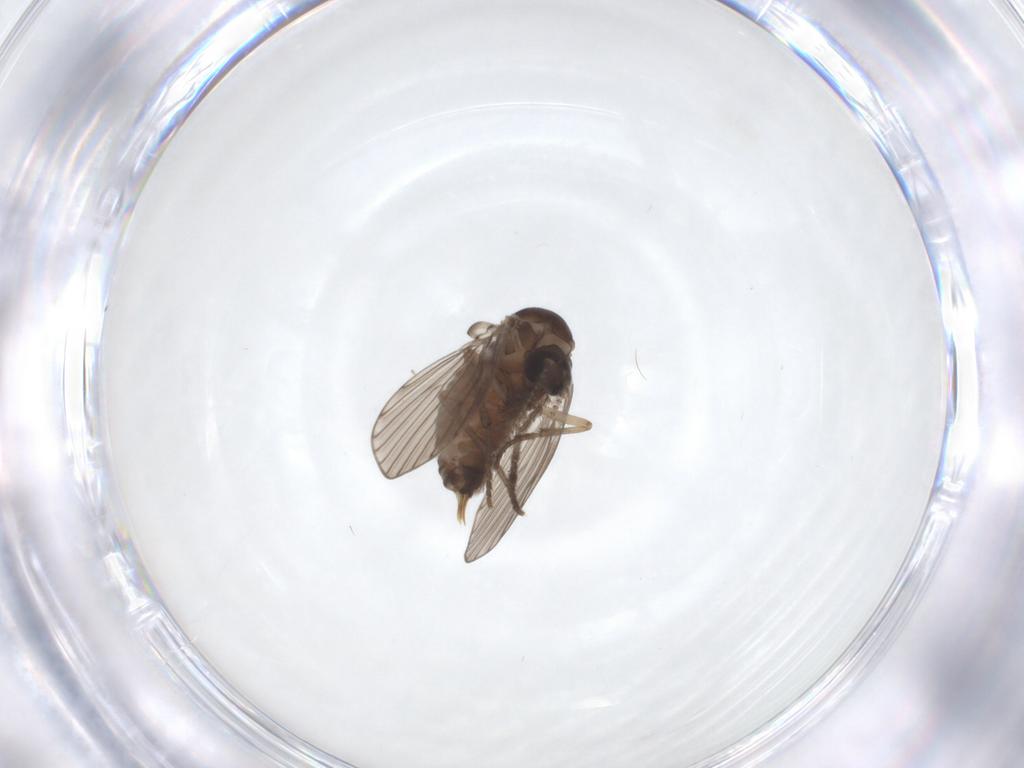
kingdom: Animalia
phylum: Arthropoda
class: Insecta
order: Diptera
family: Psychodidae
